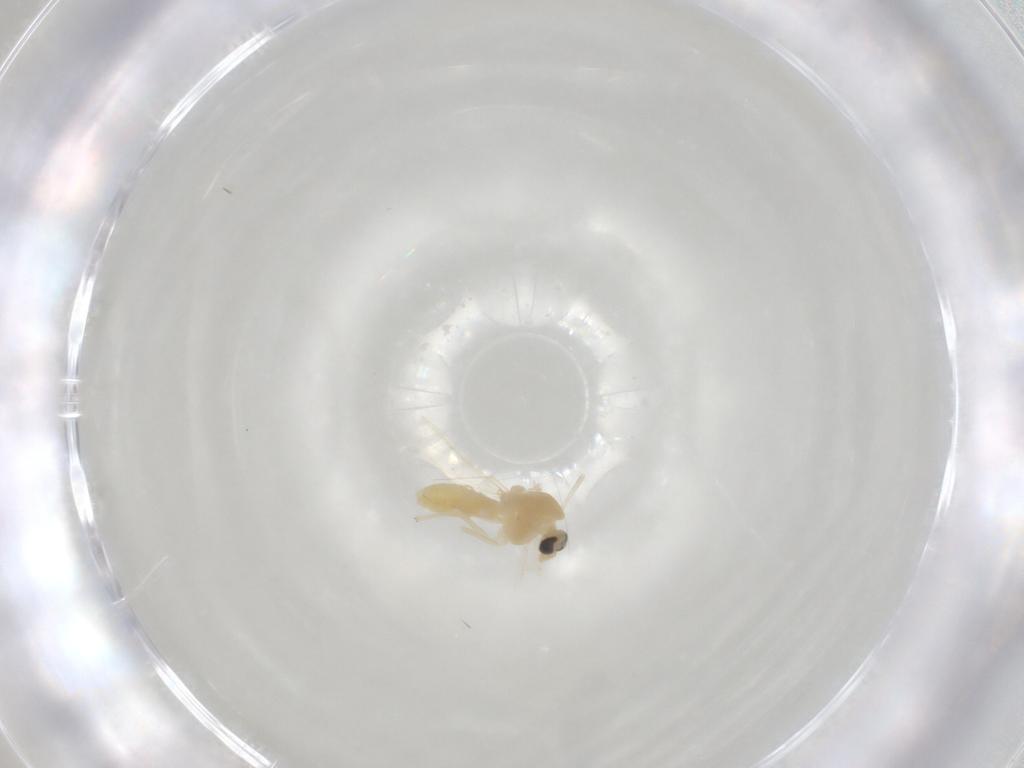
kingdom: Animalia
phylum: Arthropoda
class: Insecta
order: Diptera
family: Chironomidae
